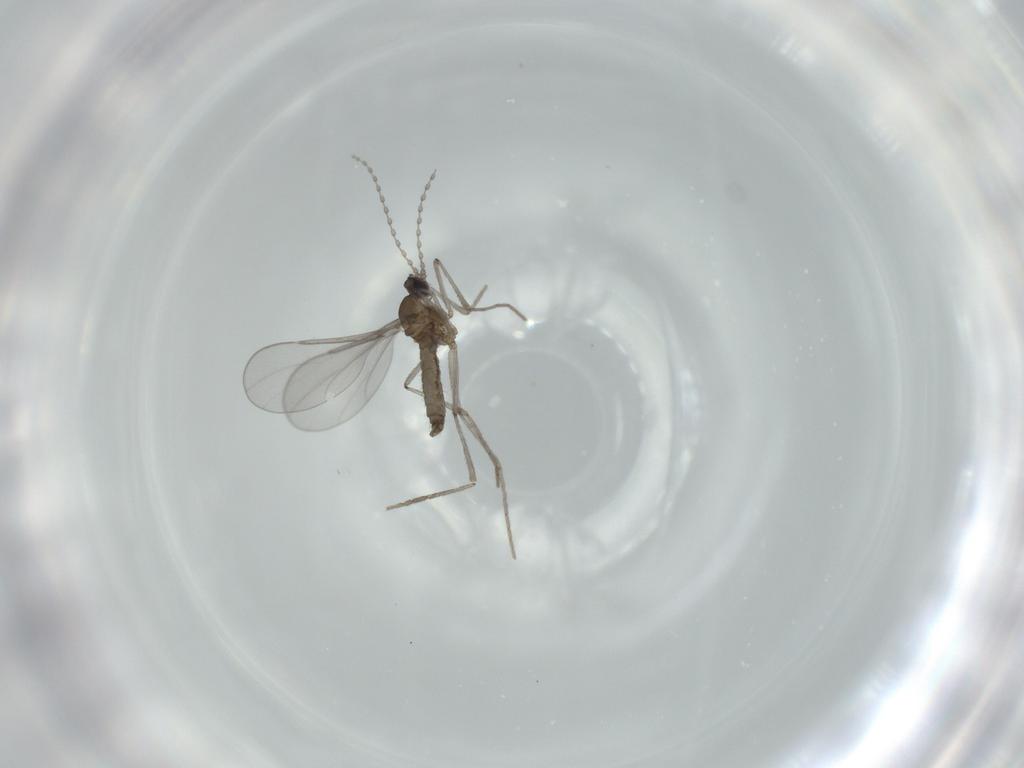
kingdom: Animalia
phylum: Arthropoda
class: Insecta
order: Diptera
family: Cecidomyiidae
